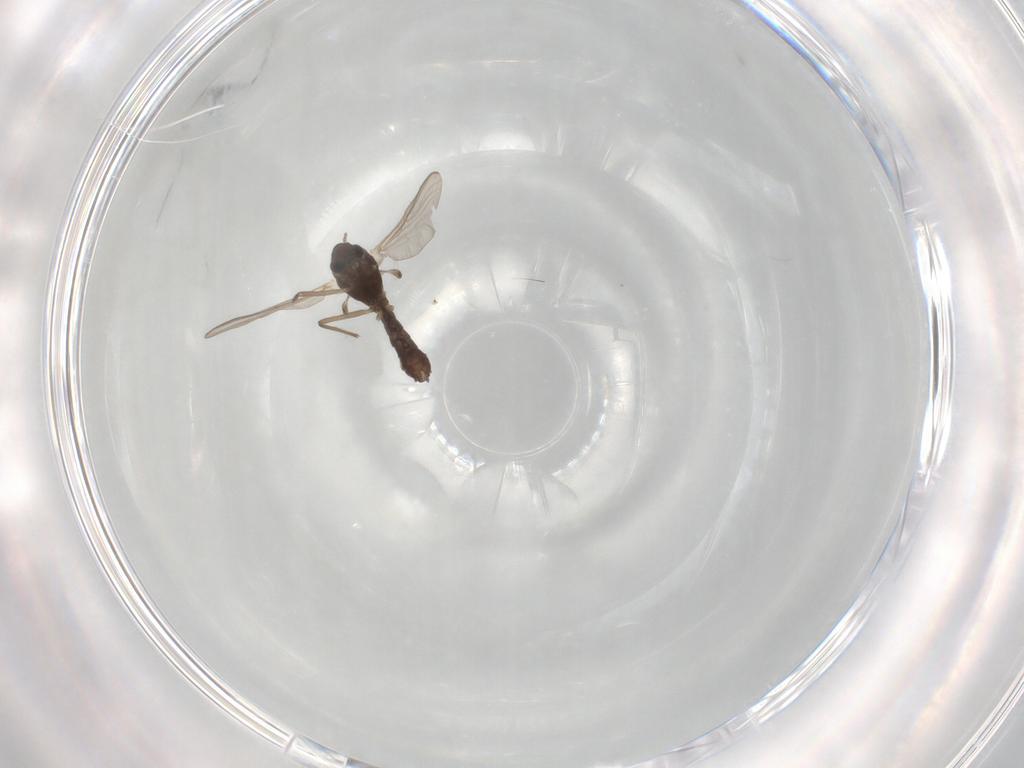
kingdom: Animalia
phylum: Arthropoda
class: Insecta
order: Diptera
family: Chironomidae
